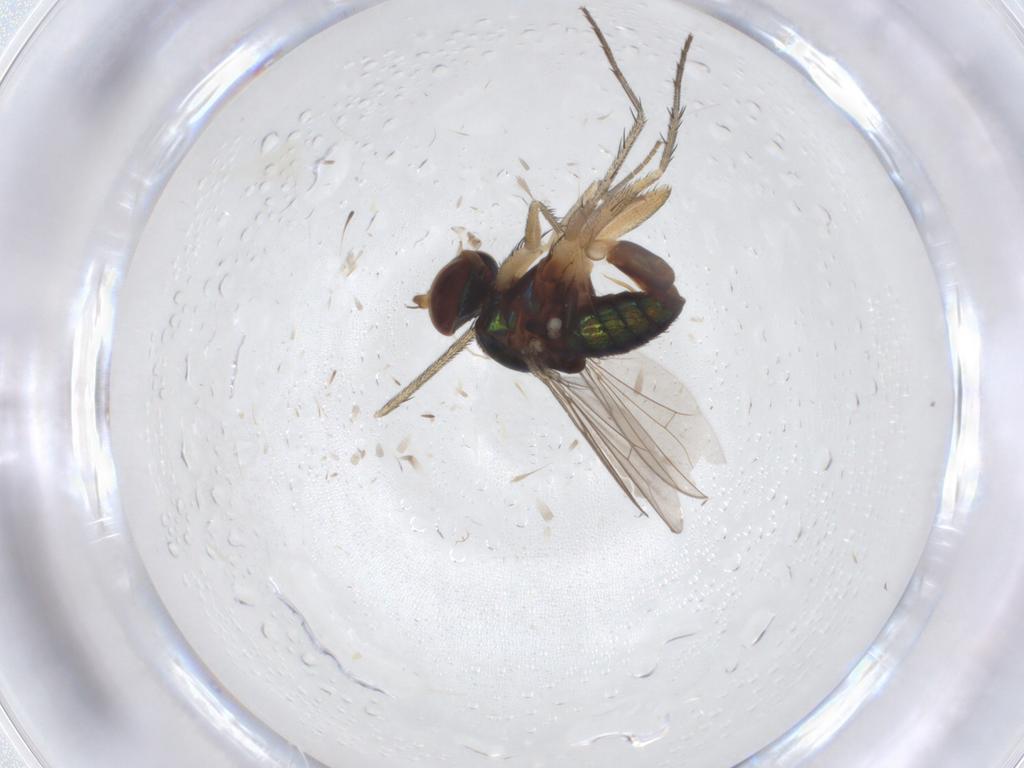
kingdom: Animalia
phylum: Arthropoda
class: Insecta
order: Diptera
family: Dolichopodidae
